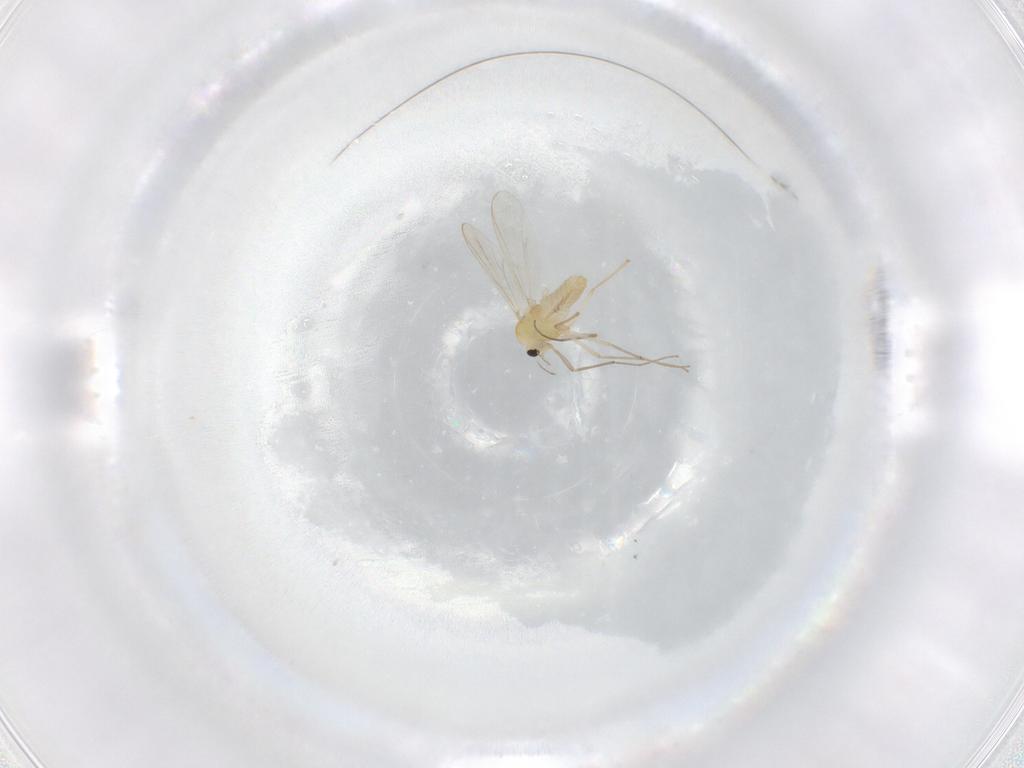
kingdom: Animalia
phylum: Arthropoda
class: Insecta
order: Diptera
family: Chironomidae
